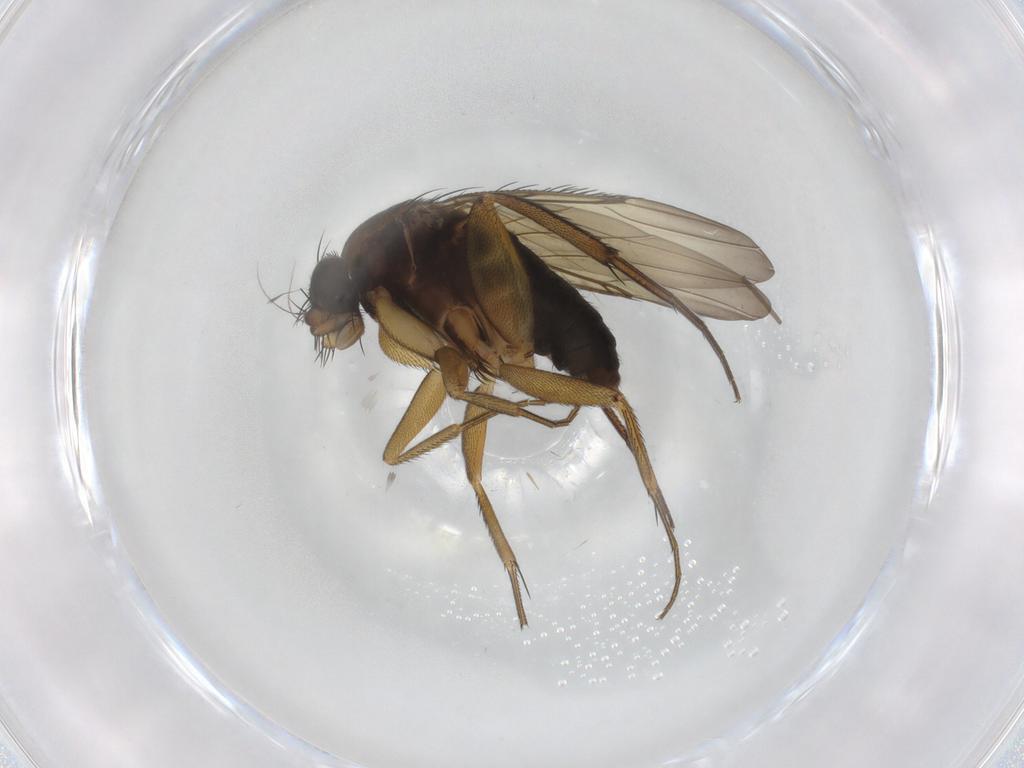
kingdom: Animalia
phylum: Arthropoda
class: Insecta
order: Diptera
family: Phoridae
